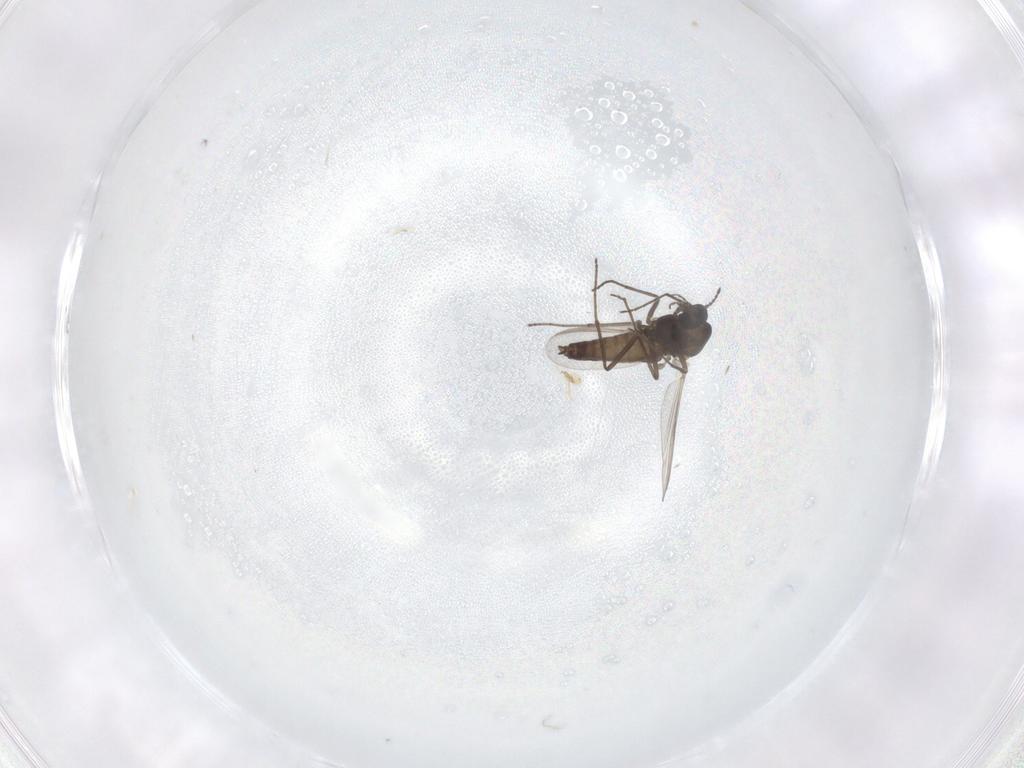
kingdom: Animalia
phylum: Arthropoda
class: Insecta
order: Diptera
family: Chironomidae
